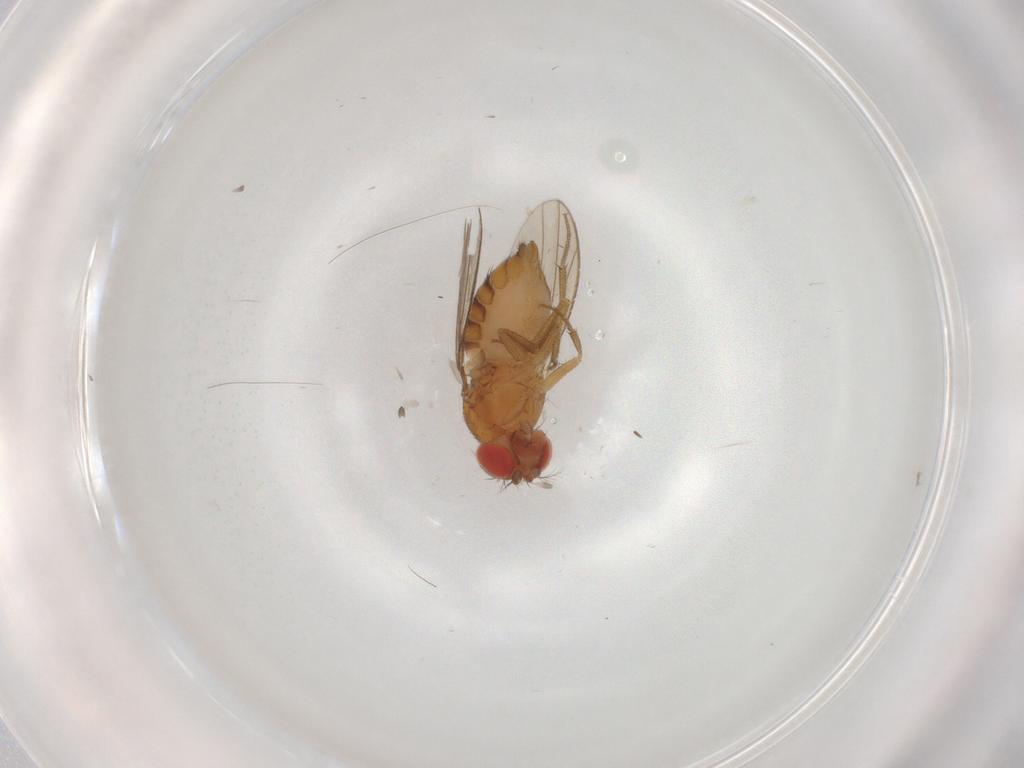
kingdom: Animalia
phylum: Arthropoda
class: Insecta
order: Diptera
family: Drosophilidae
